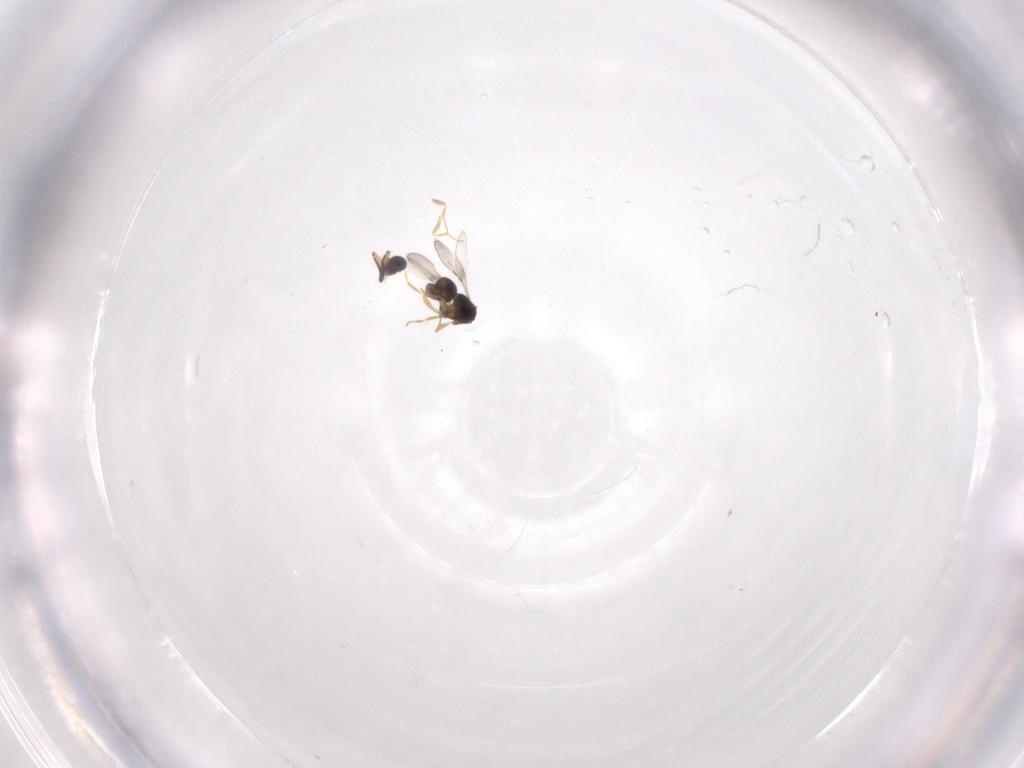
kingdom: Animalia
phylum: Arthropoda
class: Insecta
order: Hymenoptera
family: Ceraphronidae
